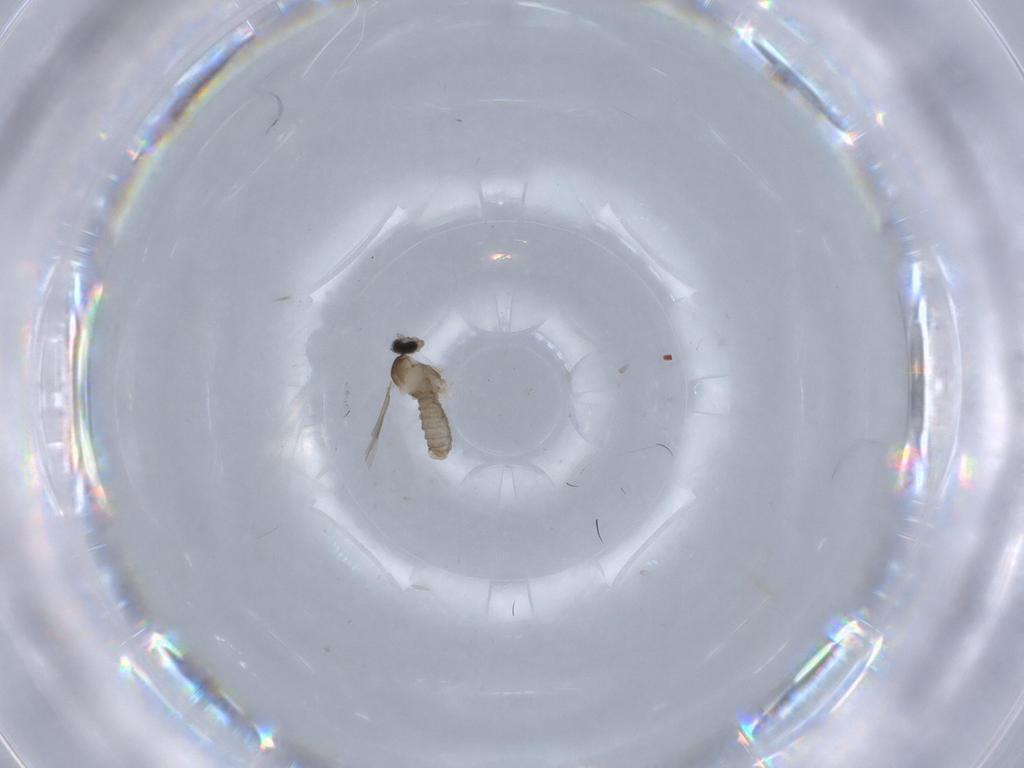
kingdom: Animalia
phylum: Arthropoda
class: Insecta
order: Diptera
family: Cecidomyiidae
